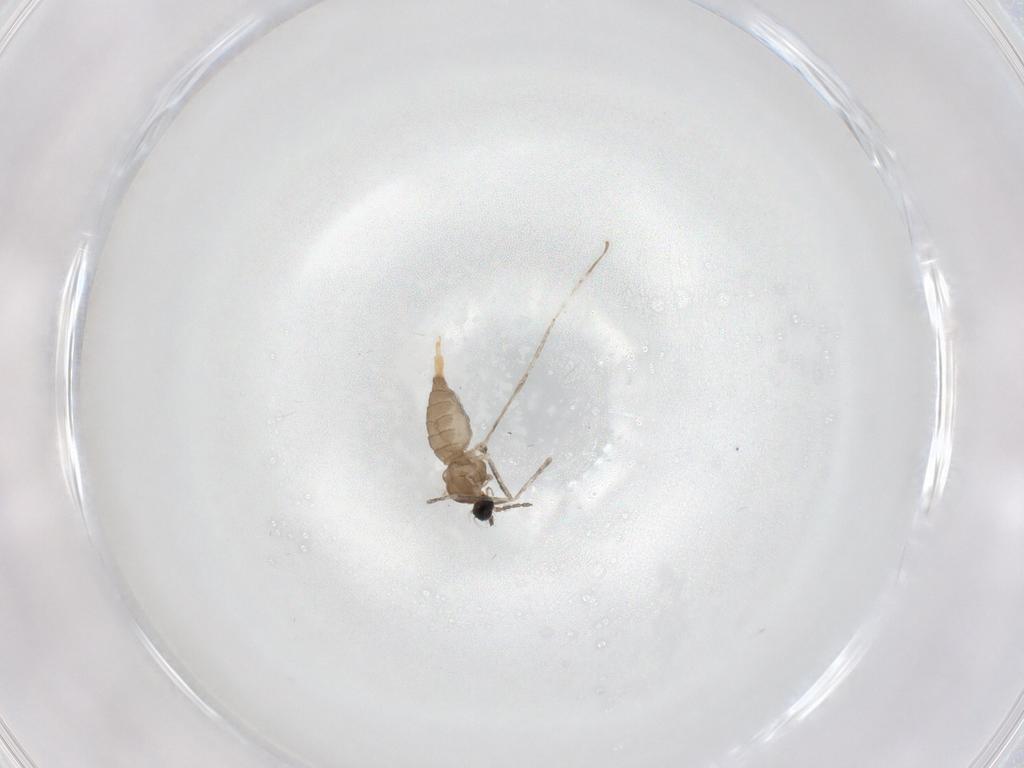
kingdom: Animalia
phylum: Arthropoda
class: Insecta
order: Diptera
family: Cecidomyiidae
